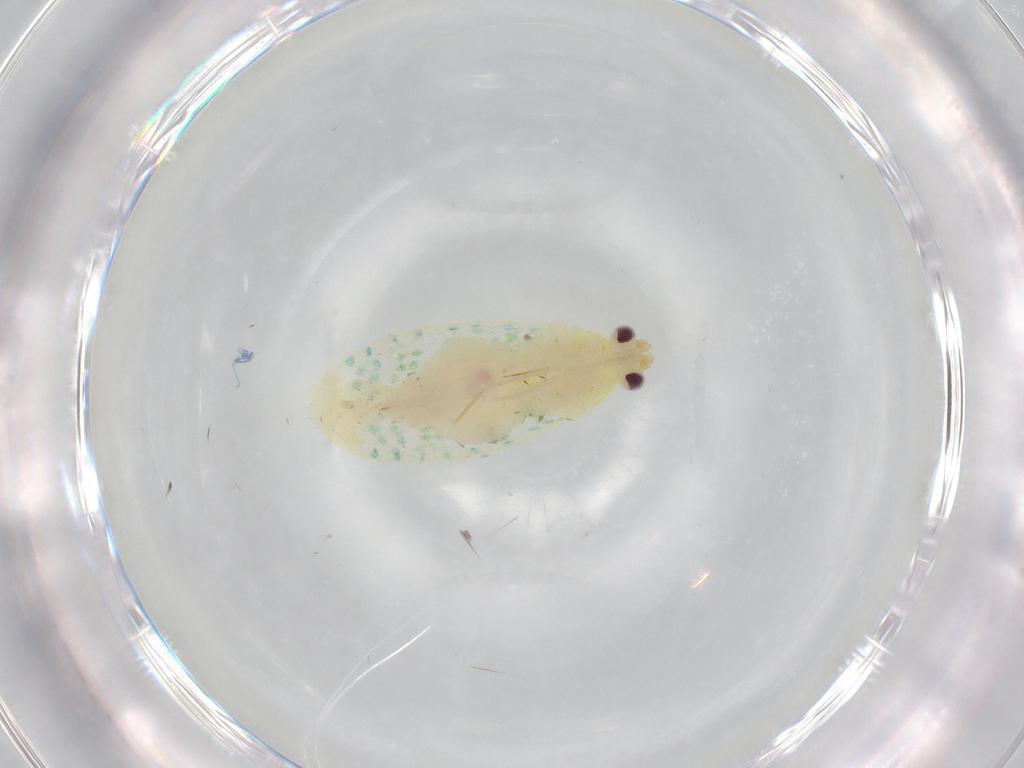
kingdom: Animalia
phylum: Arthropoda
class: Insecta
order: Hemiptera
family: Miridae
